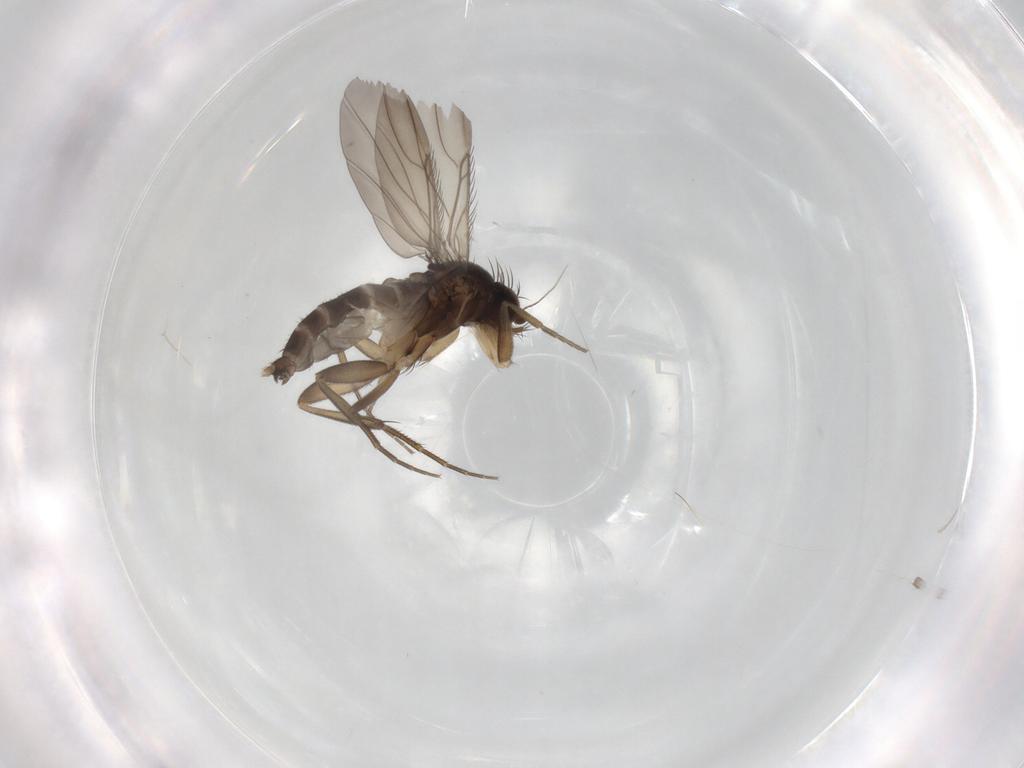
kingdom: Animalia
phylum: Arthropoda
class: Insecta
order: Diptera
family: Phoridae
